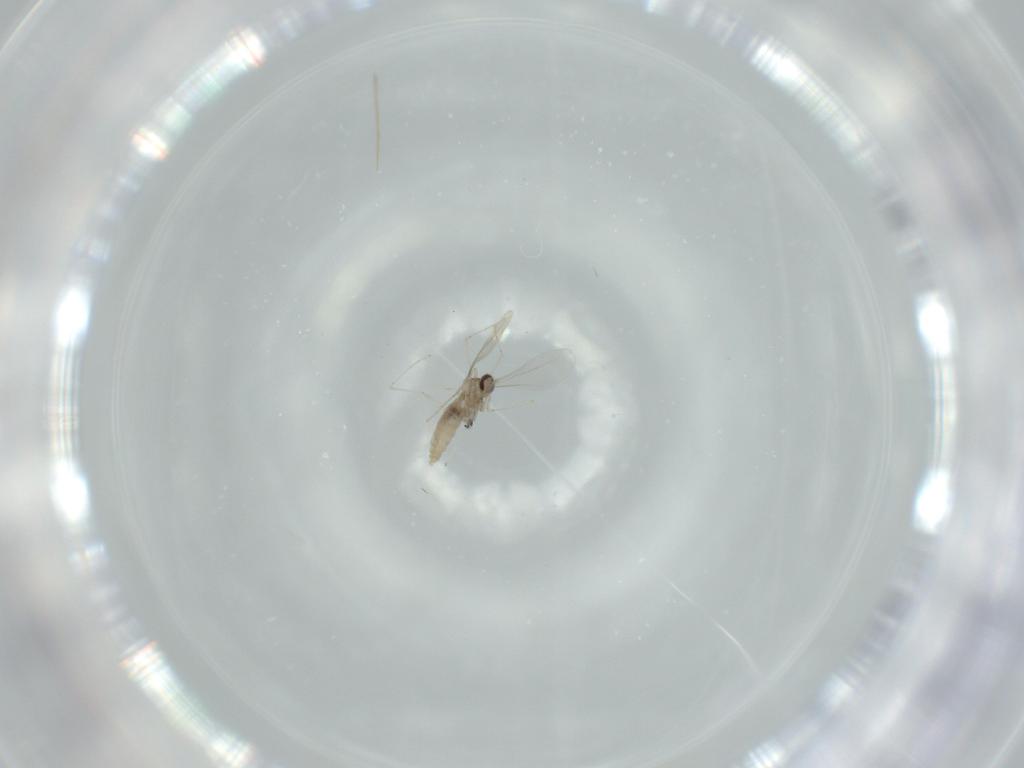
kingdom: Animalia
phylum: Arthropoda
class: Insecta
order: Diptera
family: Cecidomyiidae
